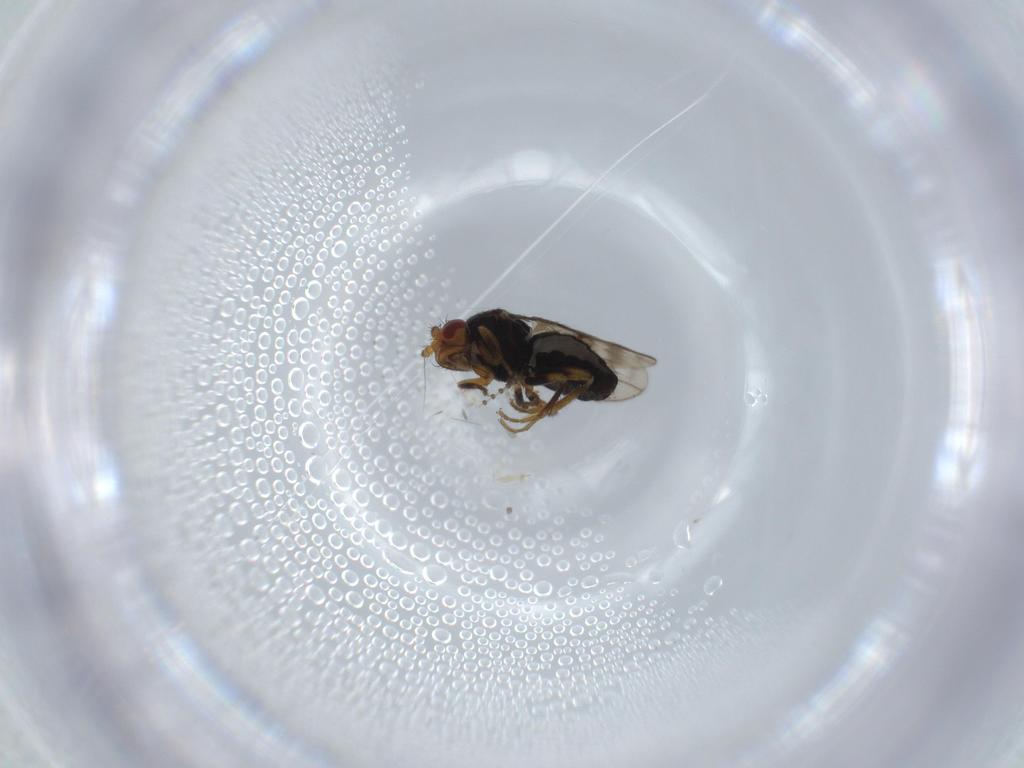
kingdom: Animalia
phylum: Arthropoda
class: Insecta
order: Diptera
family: Sphaeroceridae
